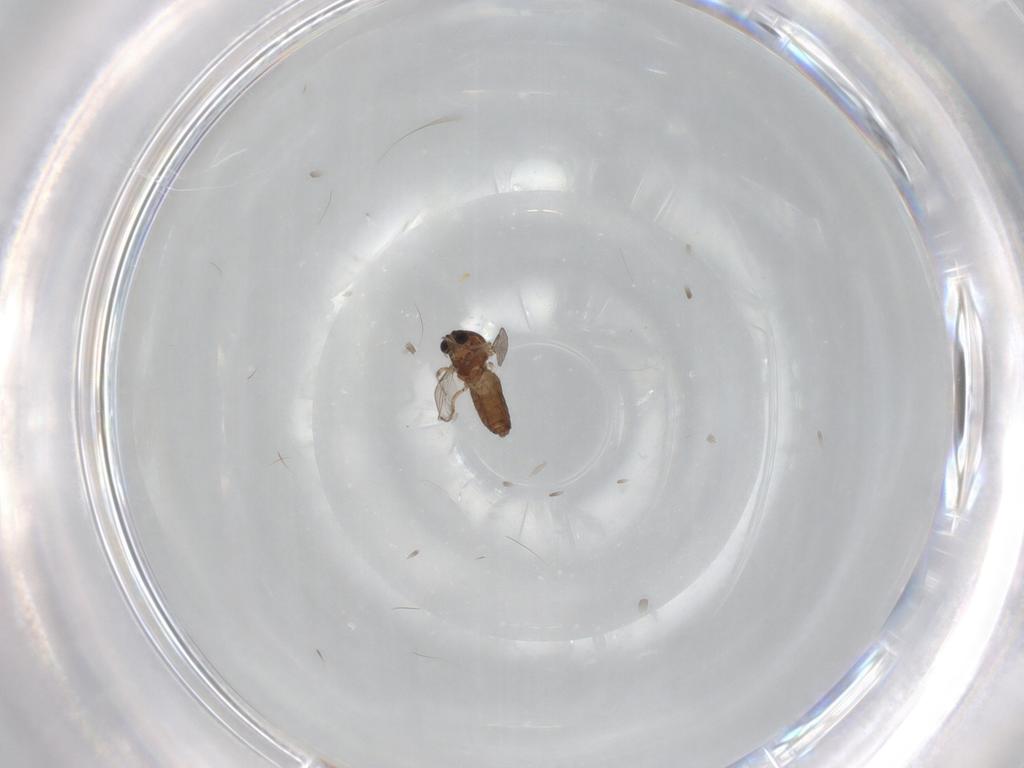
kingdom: Animalia
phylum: Arthropoda
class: Insecta
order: Diptera
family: Ceratopogonidae
